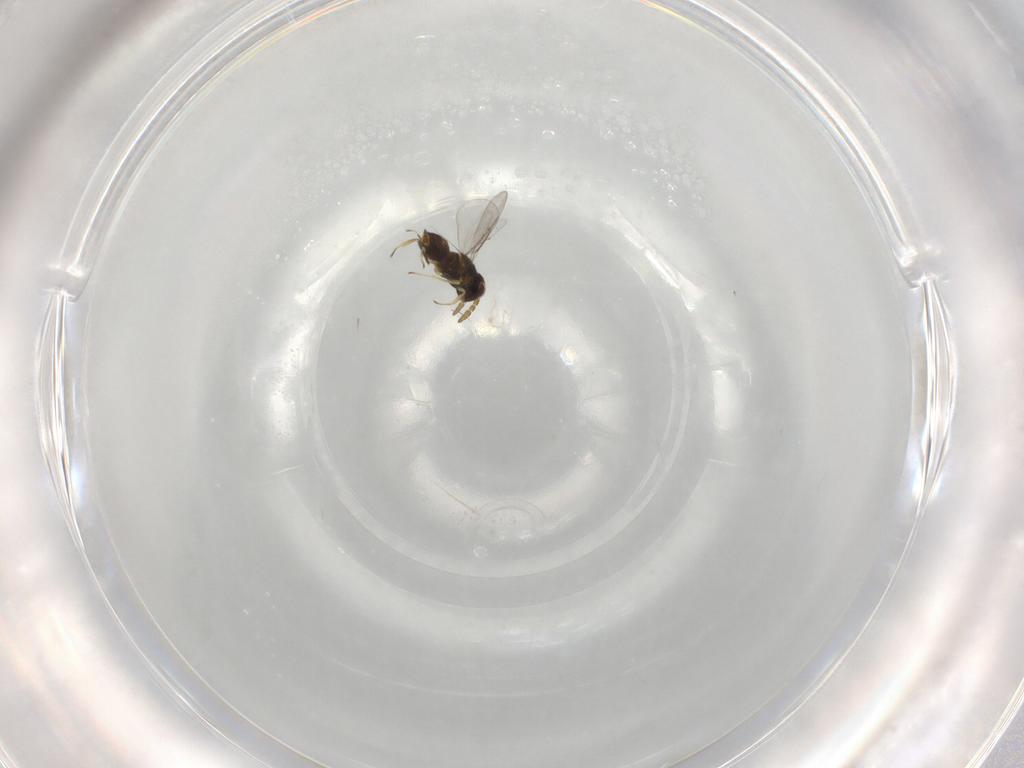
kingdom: Animalia
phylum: Arthropoda
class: Insecta
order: Hymenoptera
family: Aphelinidae
